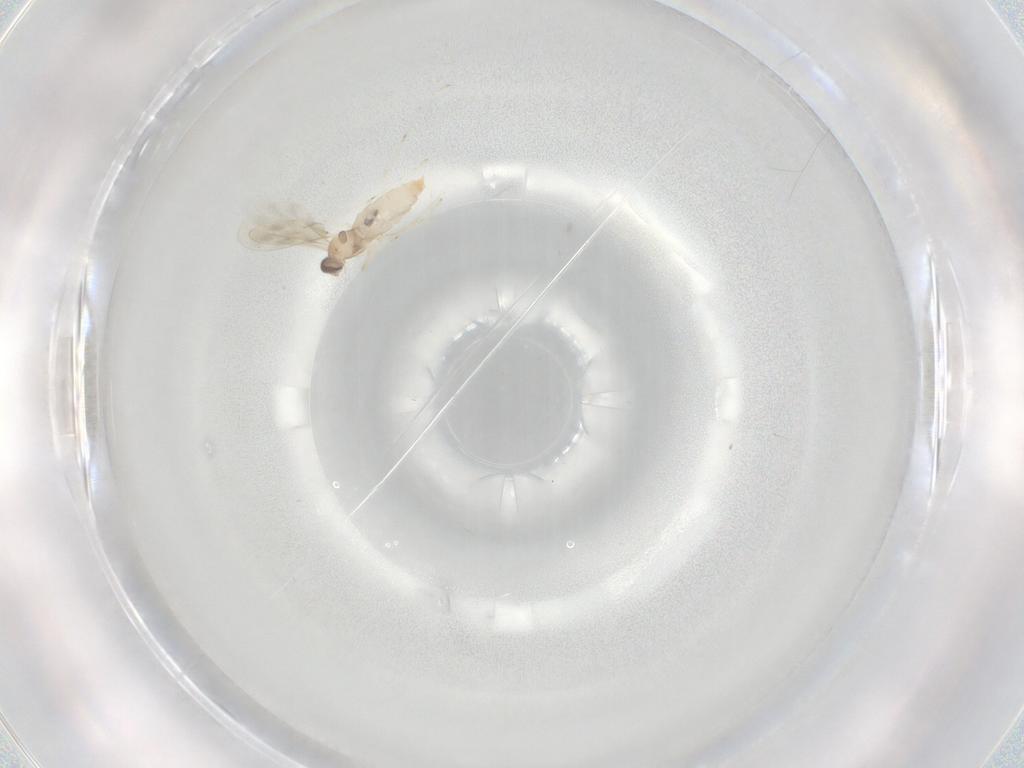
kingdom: Animalia
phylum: Arthropoda
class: Insecta
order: Diptera
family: Cecidomyiidae
